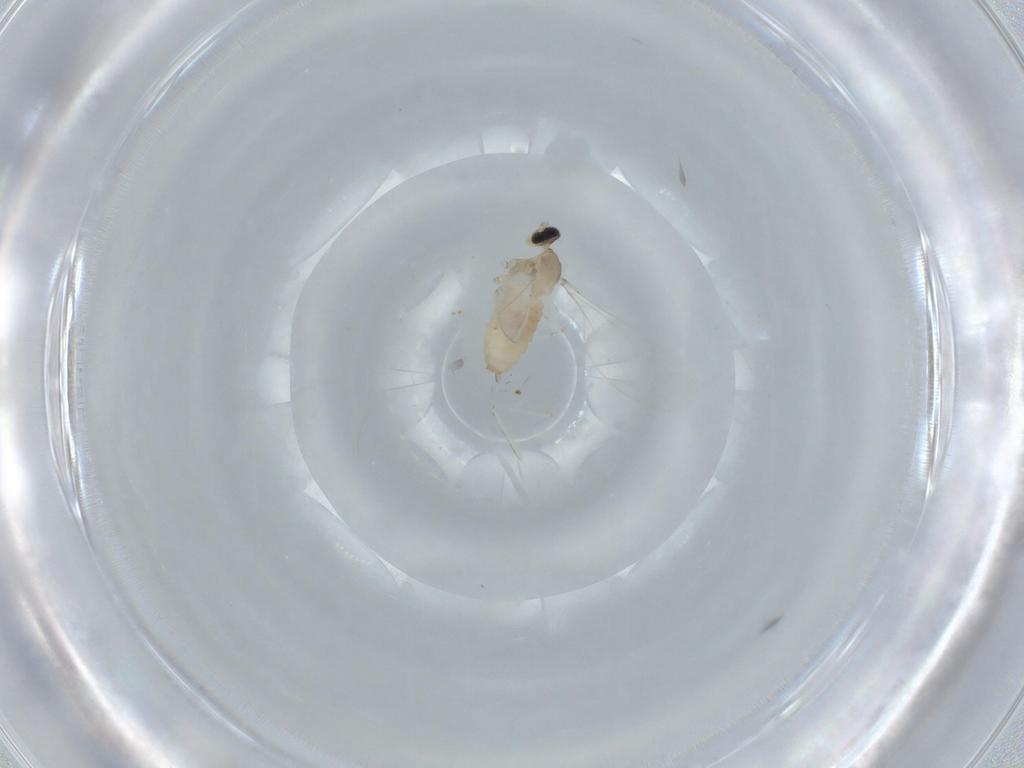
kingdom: Animalia
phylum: Arthropoda
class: Insecta
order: Diptera
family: Cecidomyiidae
